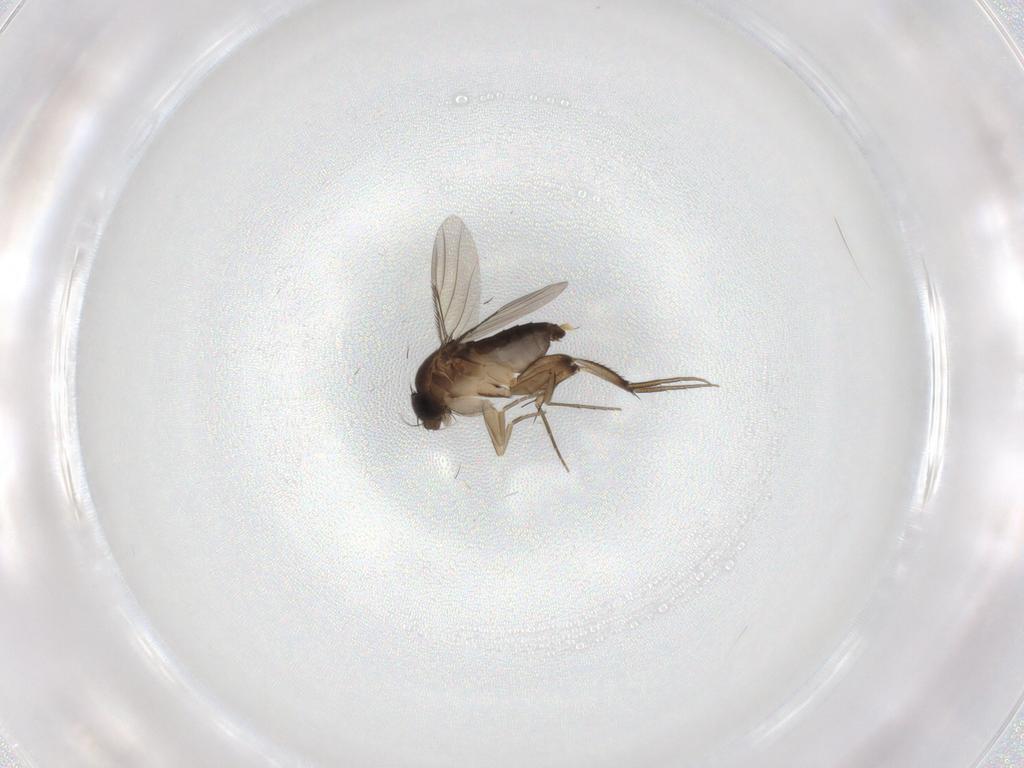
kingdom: Animalia
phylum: Arthropoda
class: Insecta
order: Diptera
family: Phoridae
